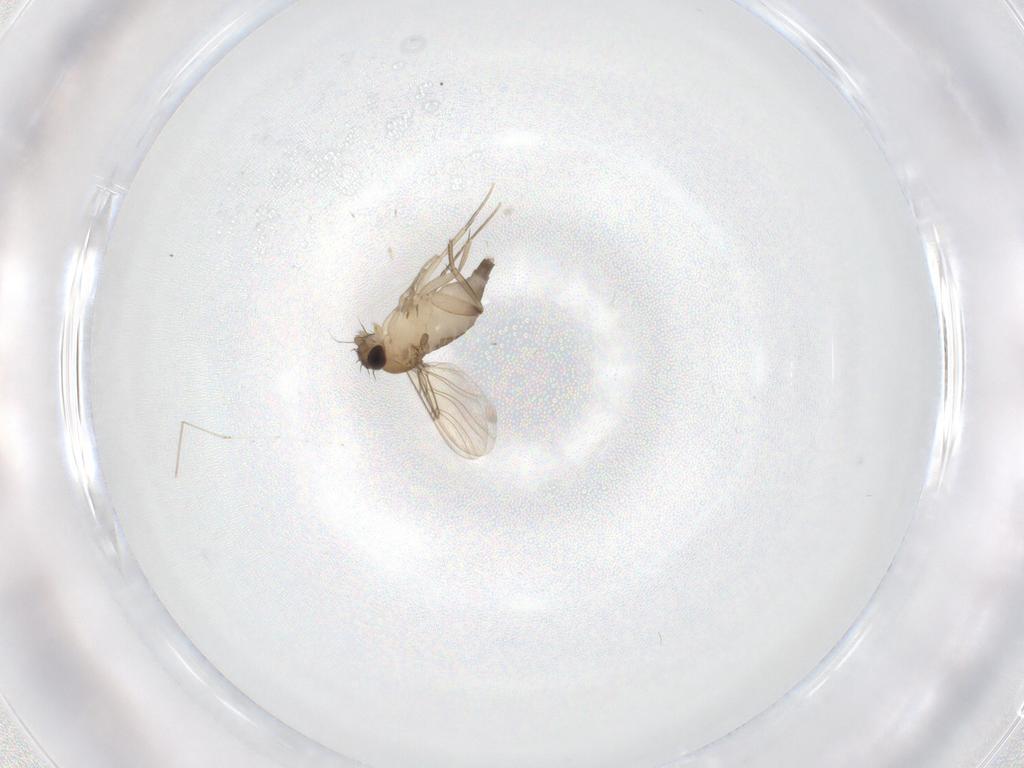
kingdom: Animalia
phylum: Arthropoda
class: Insecta
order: Diptera
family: Phoridae
